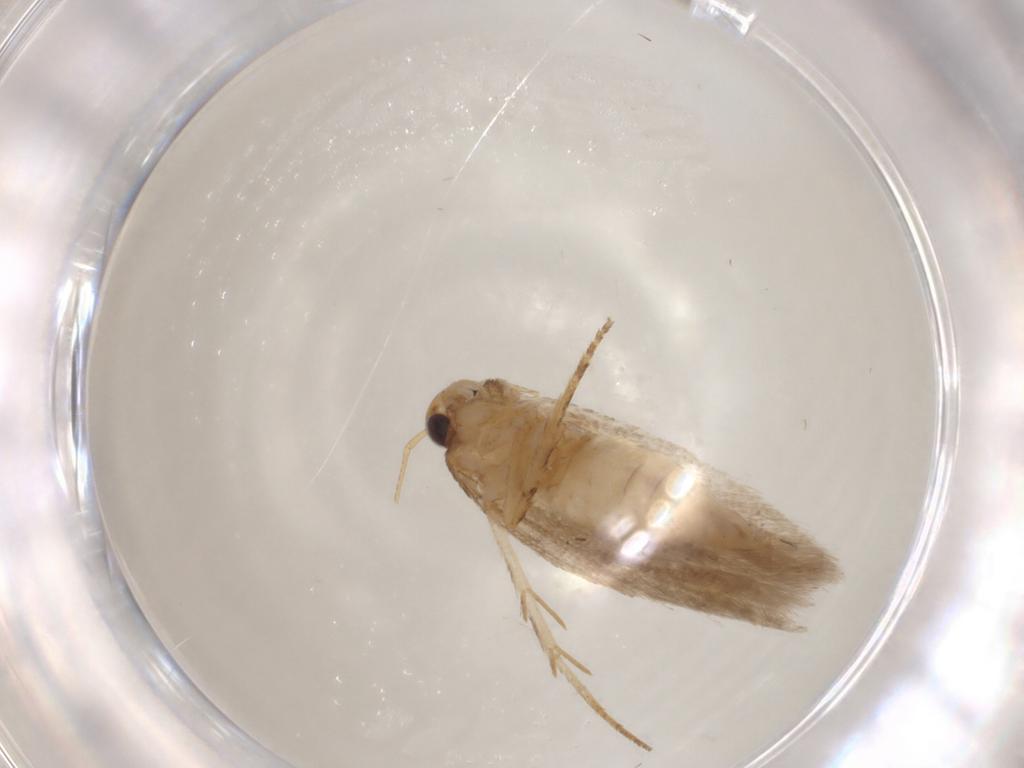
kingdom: Animalia
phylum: Arthropoda
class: Insecta
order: Lepidoptera
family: Gelechiidae
